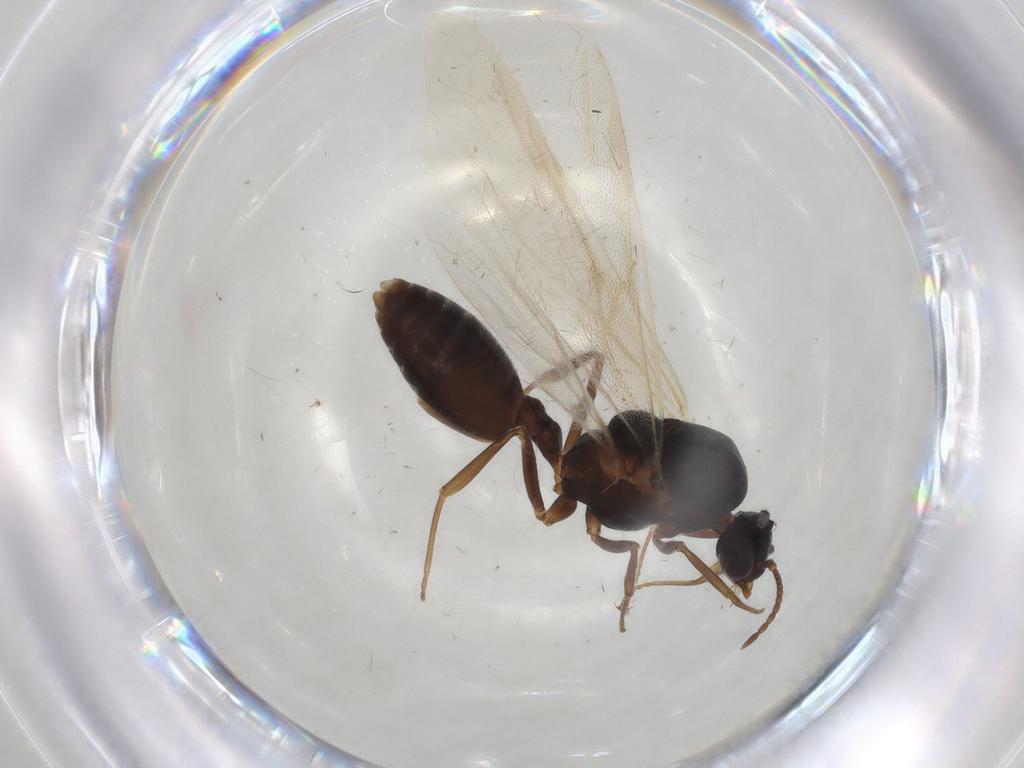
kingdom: Animalia
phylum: Arthropoda
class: Insecta
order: Hymenoptera
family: Formicidae
